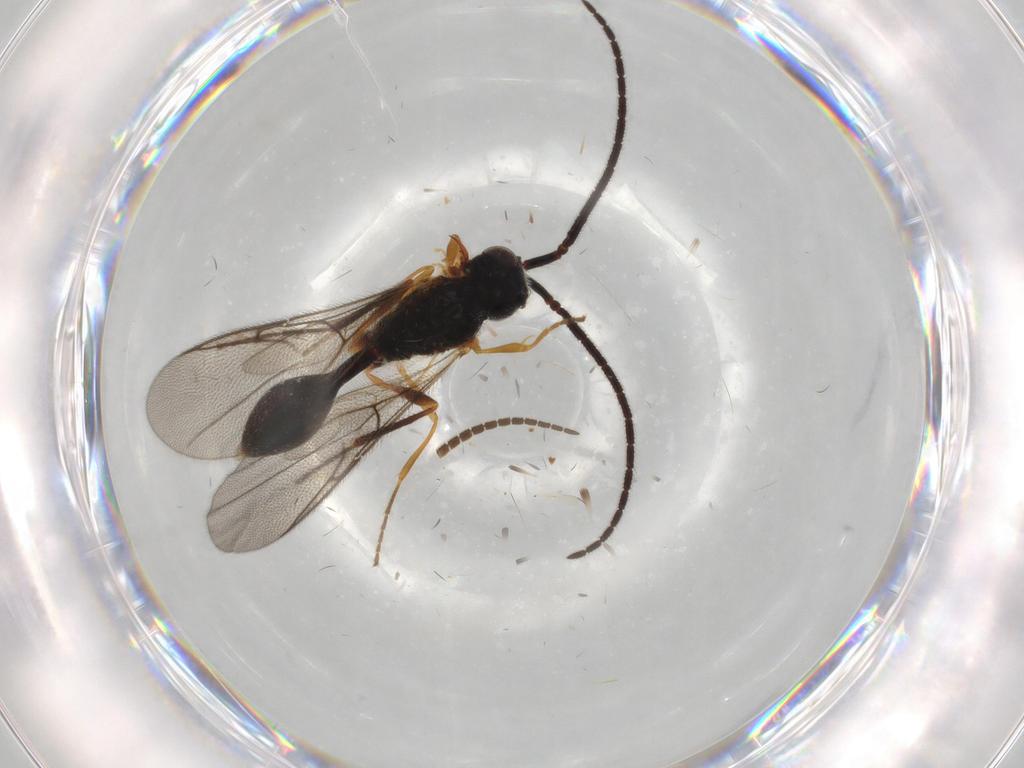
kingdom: Animalia
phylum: Arthropoda
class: Insecta
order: Hymenoptera
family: Diapriidae
